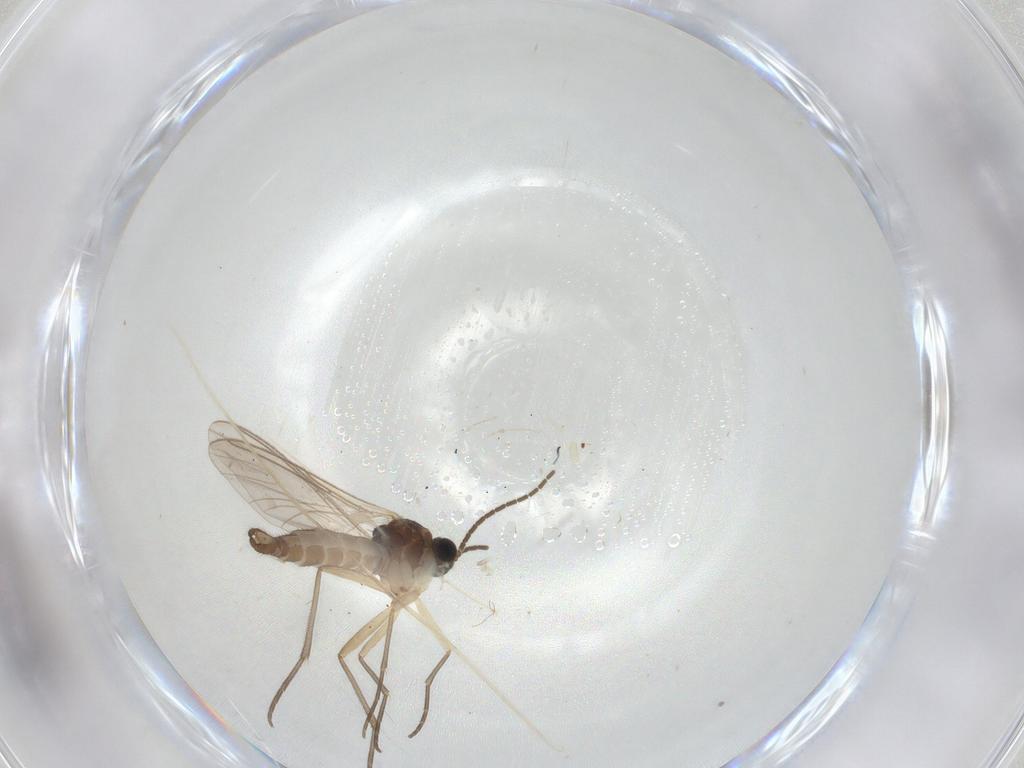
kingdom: Animalia
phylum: Arthropoda
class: Insecta
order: Diptera
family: Sciaridae
